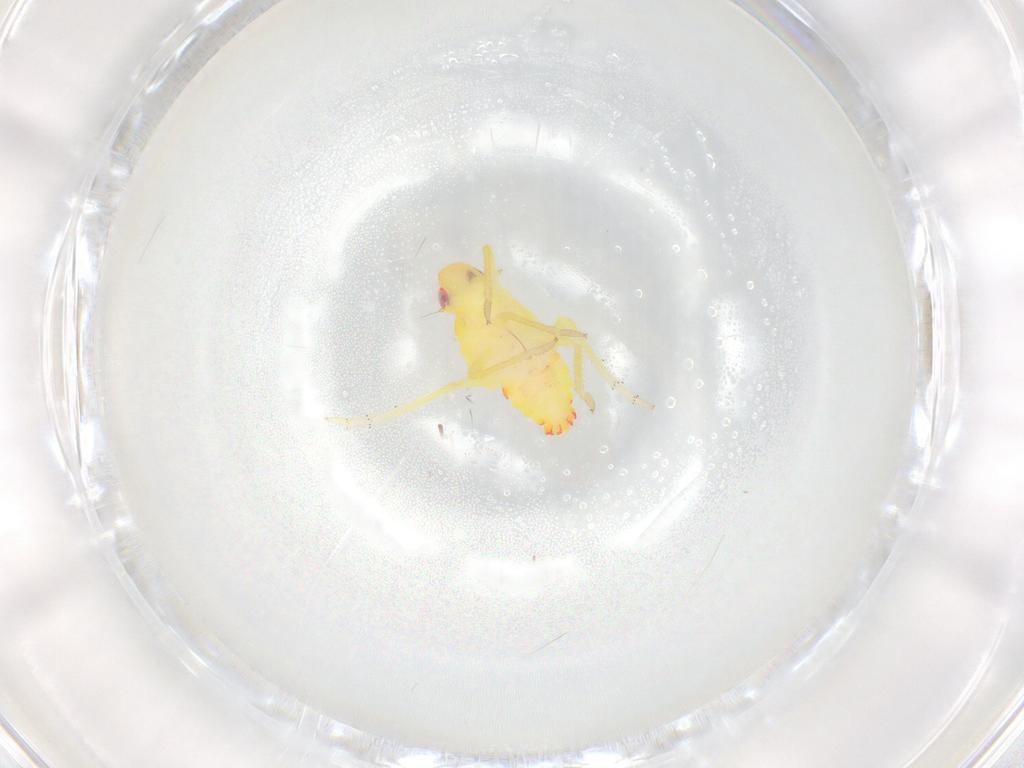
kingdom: Animalia
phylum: Arthropoda
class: Insecta
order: Hemiptera
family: Tropiduchidae
